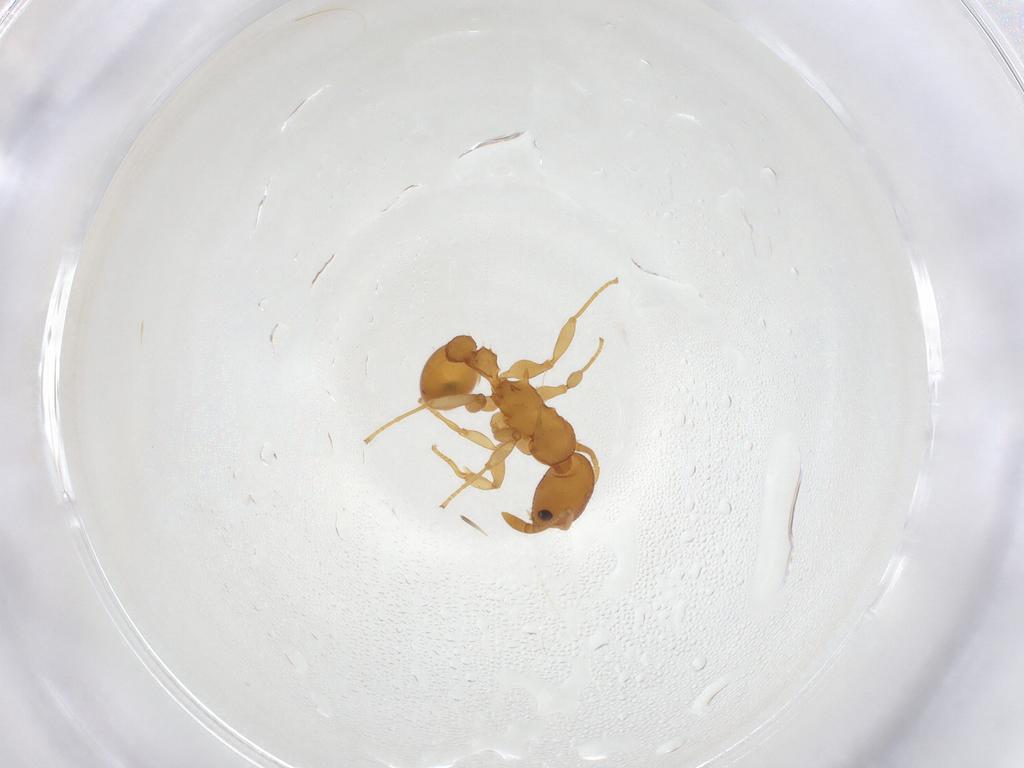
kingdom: Animalia
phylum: Arthropoda
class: Insecta
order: Hymenoptera
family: Formicidae
